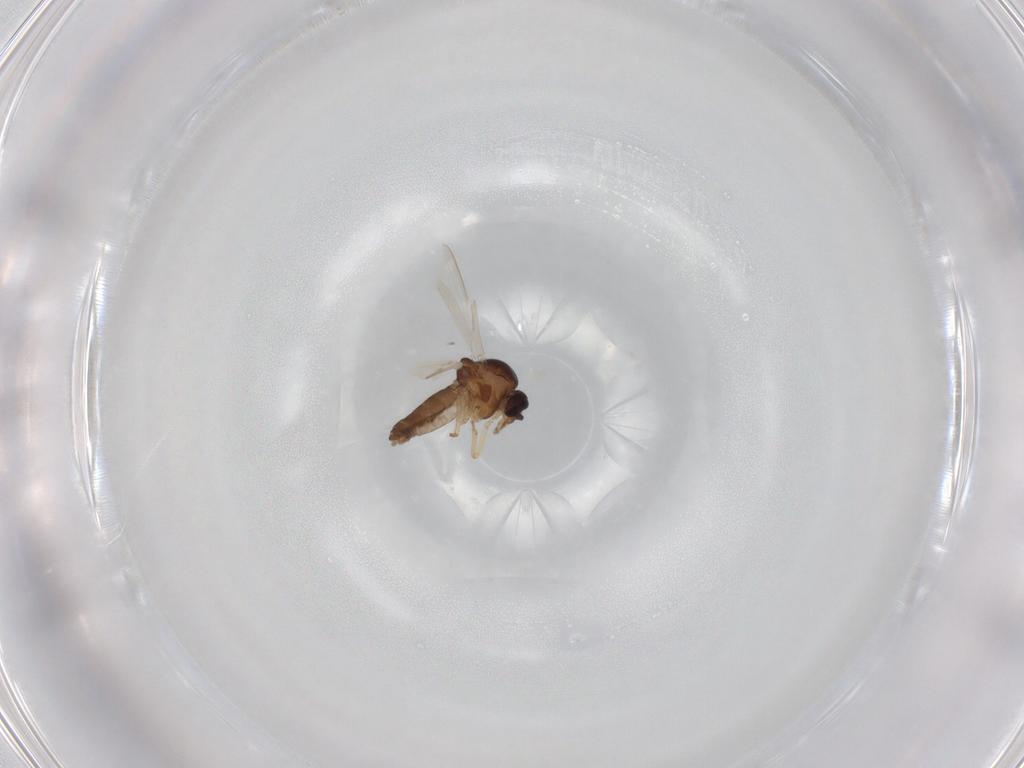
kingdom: Animalia
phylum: Arthropoda
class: Insecta
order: Diptera
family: Ceratopogonidae
